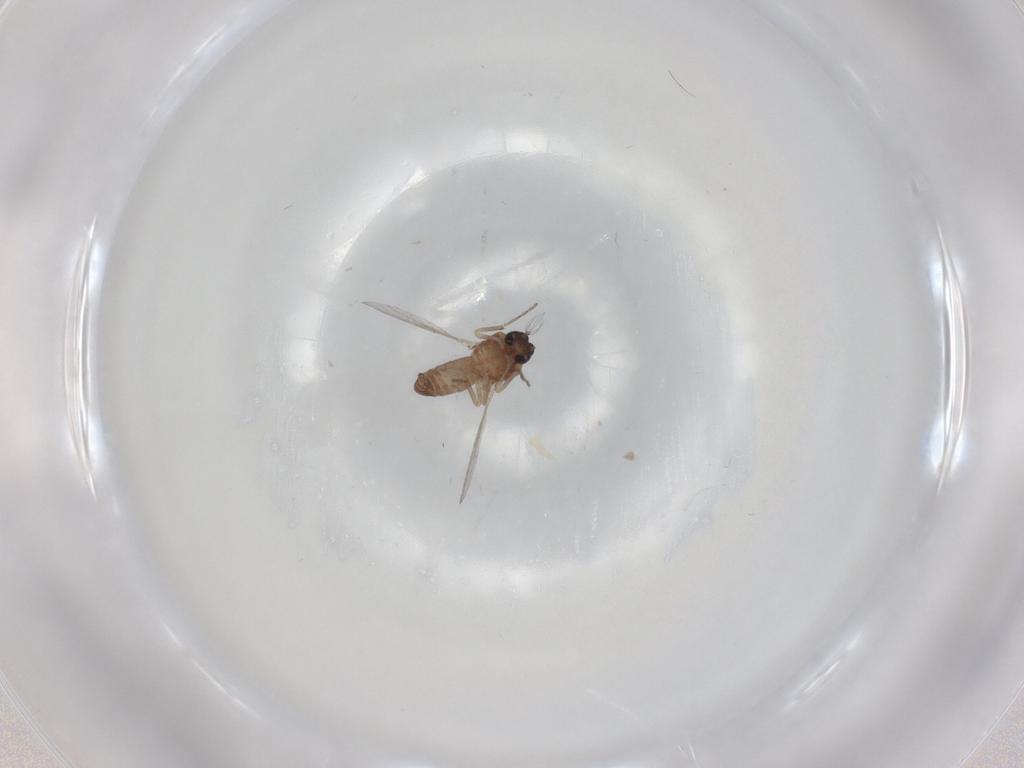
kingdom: Animalia
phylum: Arthropoda
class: Insecta
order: Diptera
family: Ceratopogonidae
